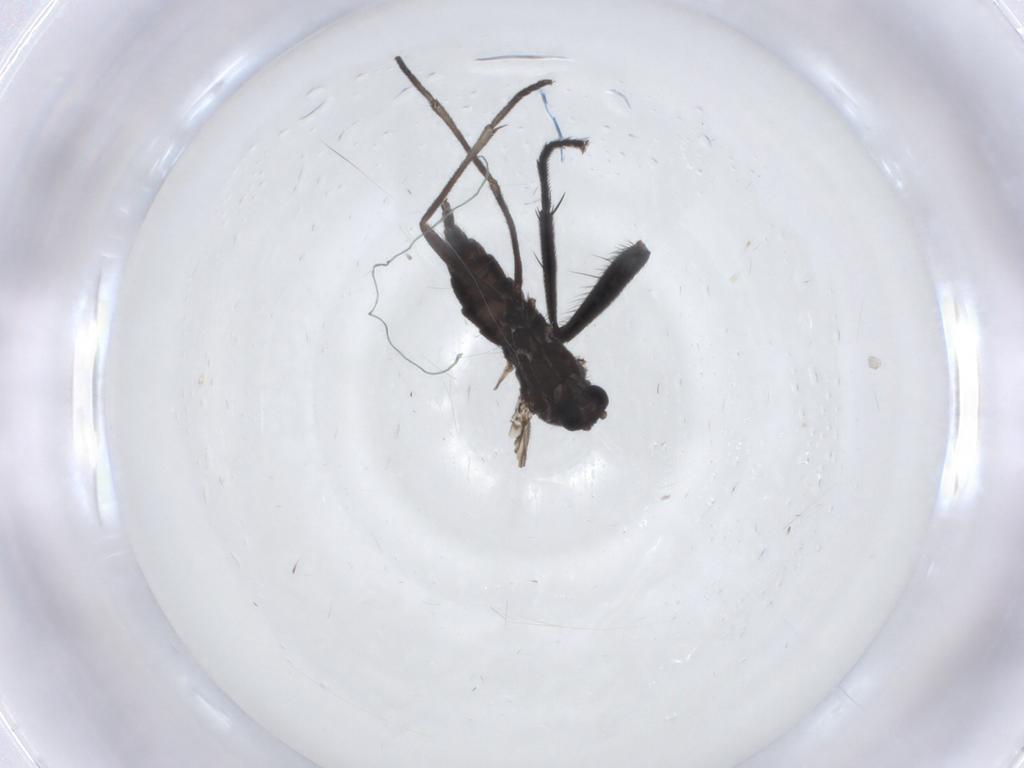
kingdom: Animalia
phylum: Arthropoda
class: Insecta
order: Diptera
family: Sciaridae
